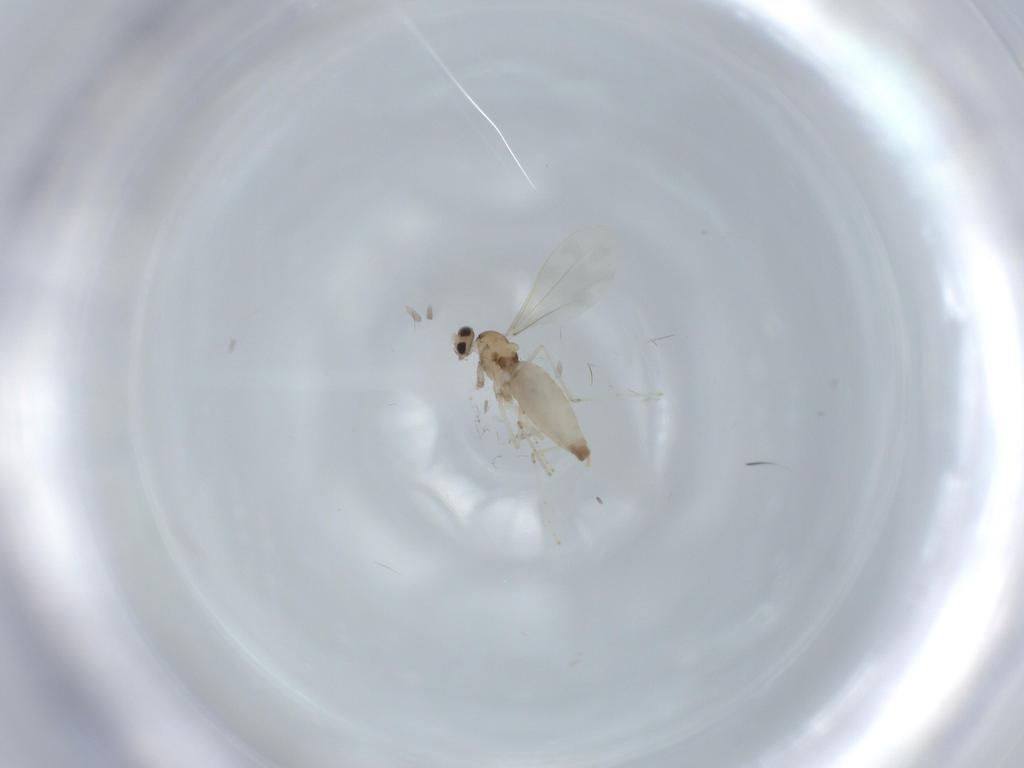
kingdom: Animalia
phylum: Arthropoda
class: Insecta
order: Diptera
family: Cecidomyiidae
